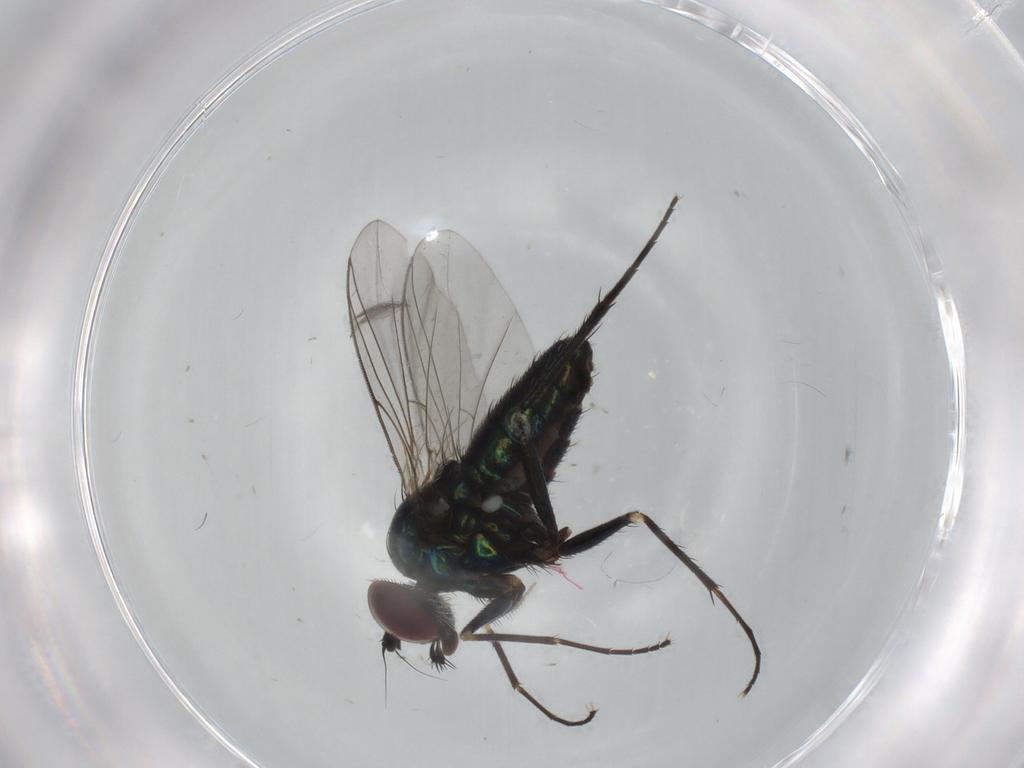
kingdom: Animalia
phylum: Arthropoda
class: Insecta
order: Diptera
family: Dolichopodidae
